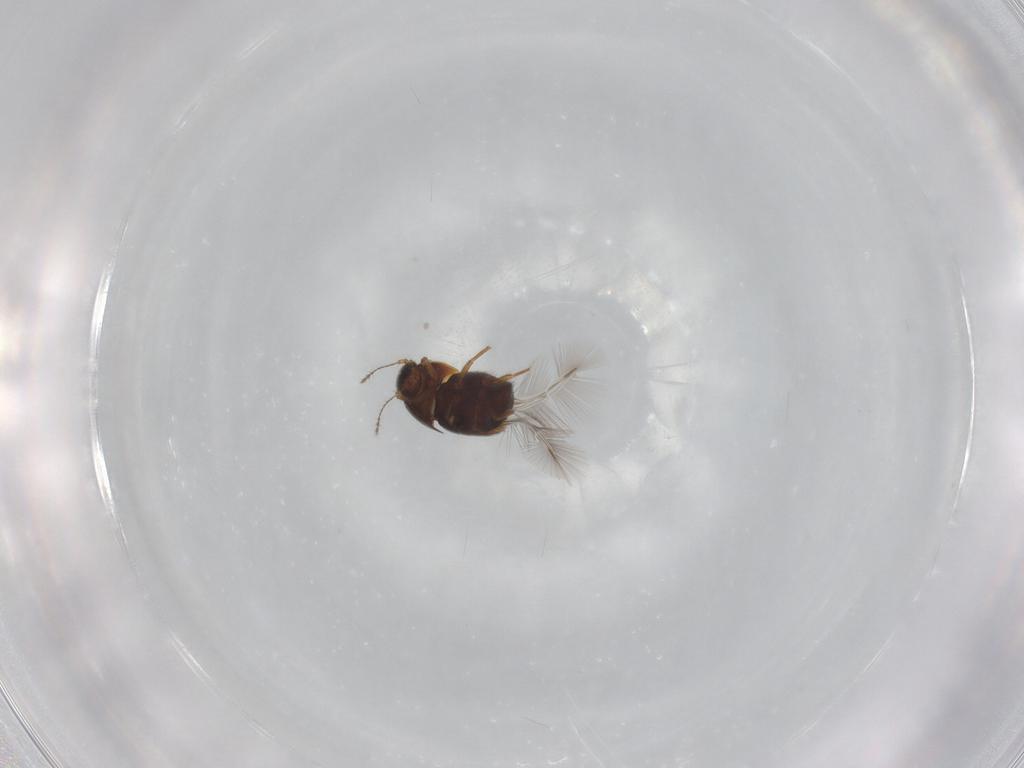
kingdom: Animalia
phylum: Arthropoda
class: Insecta
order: Coleoptera
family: Ptiliidae
